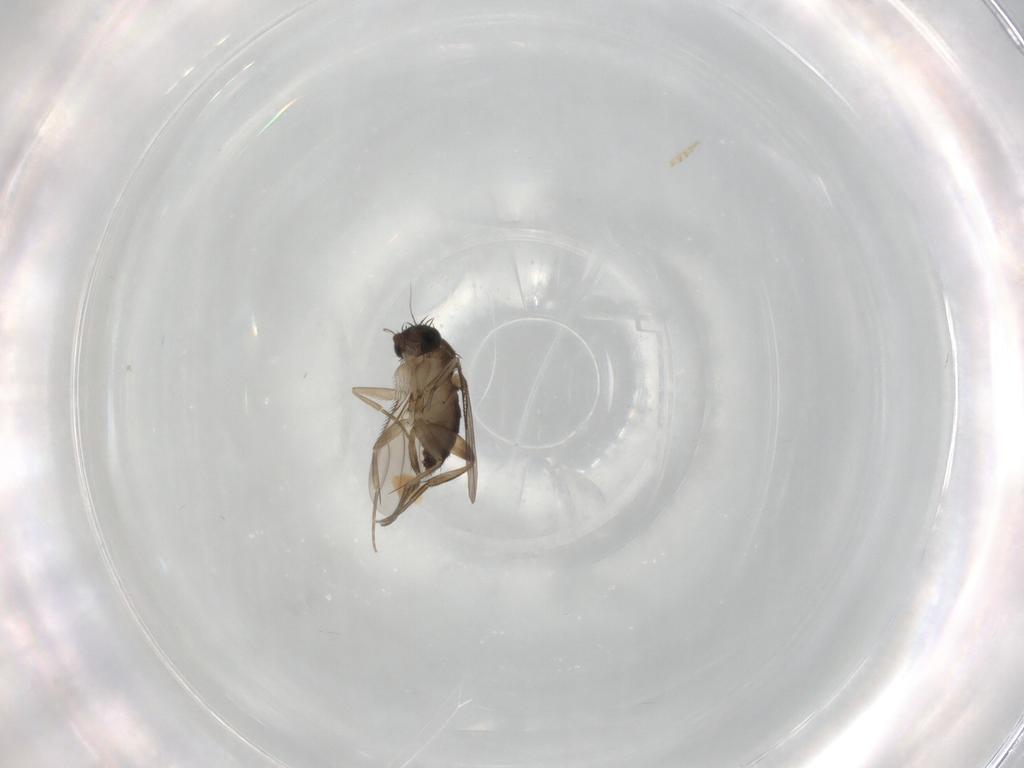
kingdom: Animalia
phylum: Arthropoda
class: Insecta
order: Diptera
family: Phoridae
